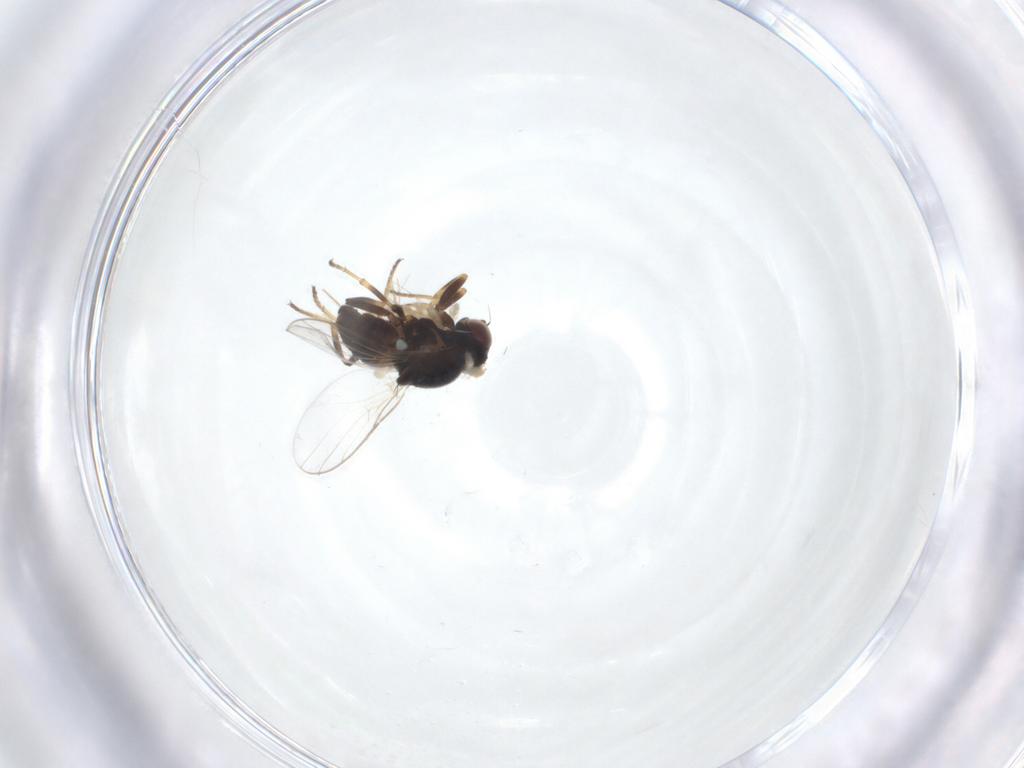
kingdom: Animalia
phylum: Arthropoda
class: Insecta
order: Diptera
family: Chloropidae
